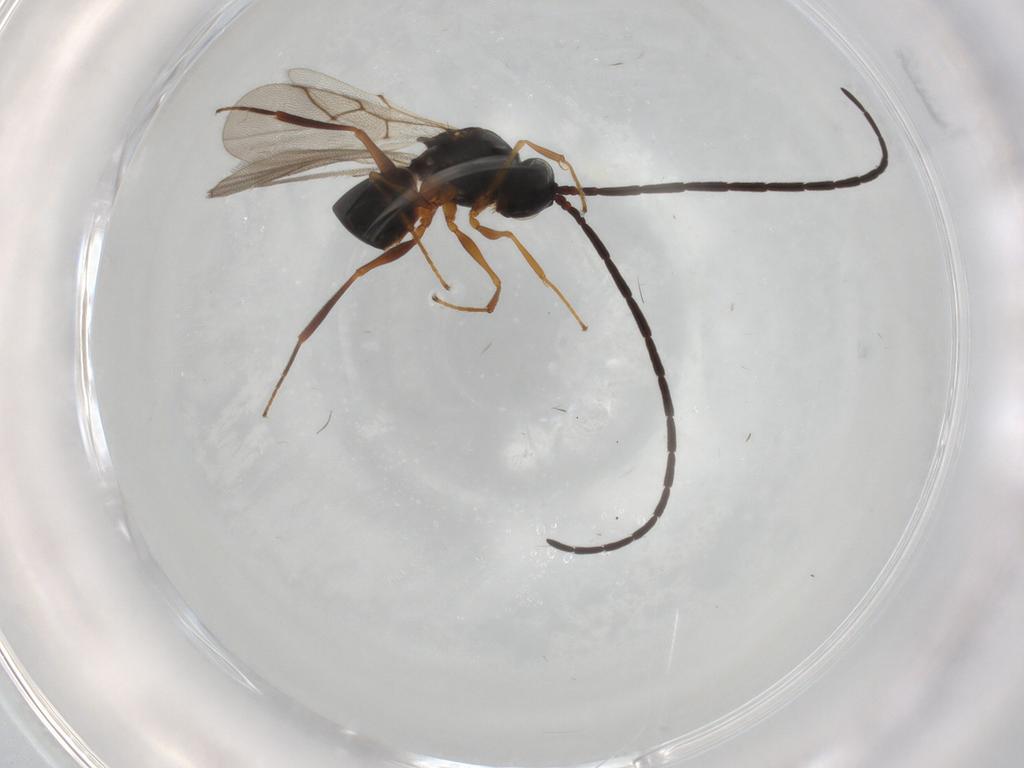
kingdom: Animalia
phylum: Arthropoda
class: Insecta
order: Hymenoptera
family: Figitidae
